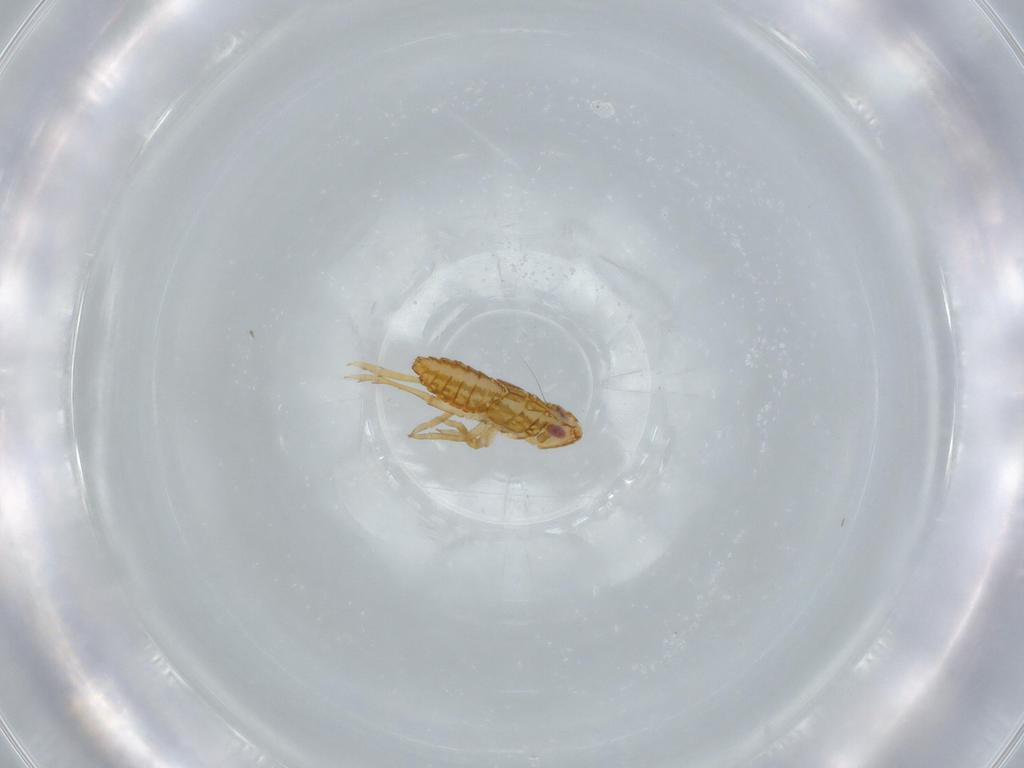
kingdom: Animalia
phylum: Arthropoda
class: Insecta
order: Hemiptera
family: Delphacidae
